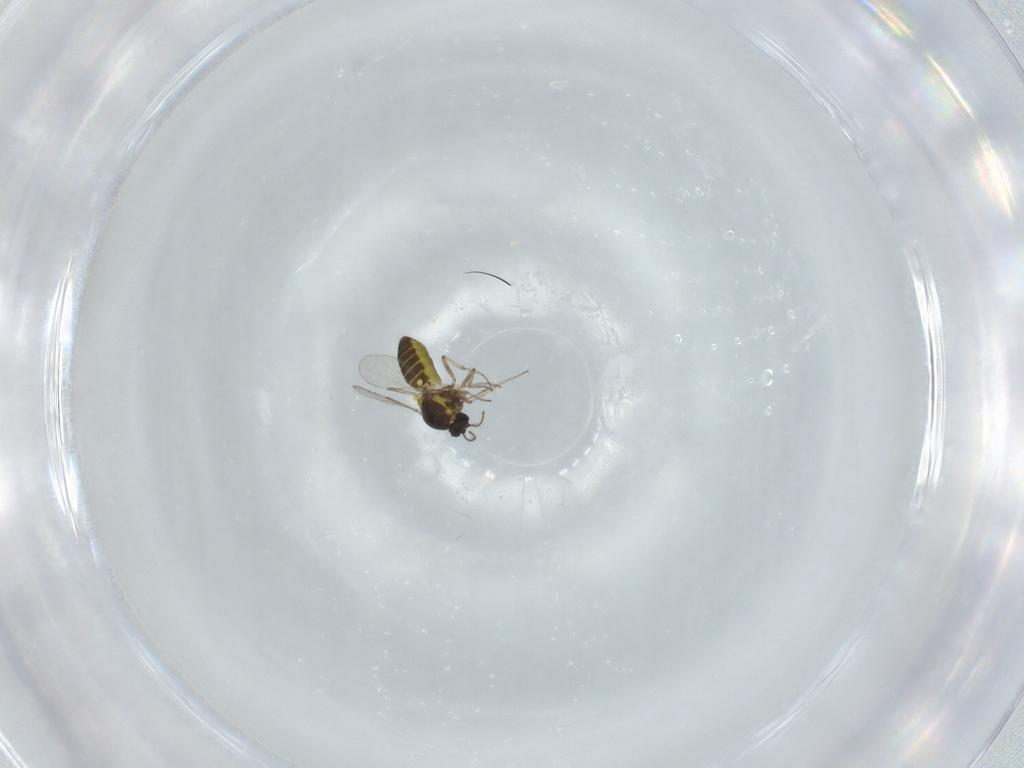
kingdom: Animalia
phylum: Arthropoda
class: Insecta
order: Diptera
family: Ceratopogonidae
